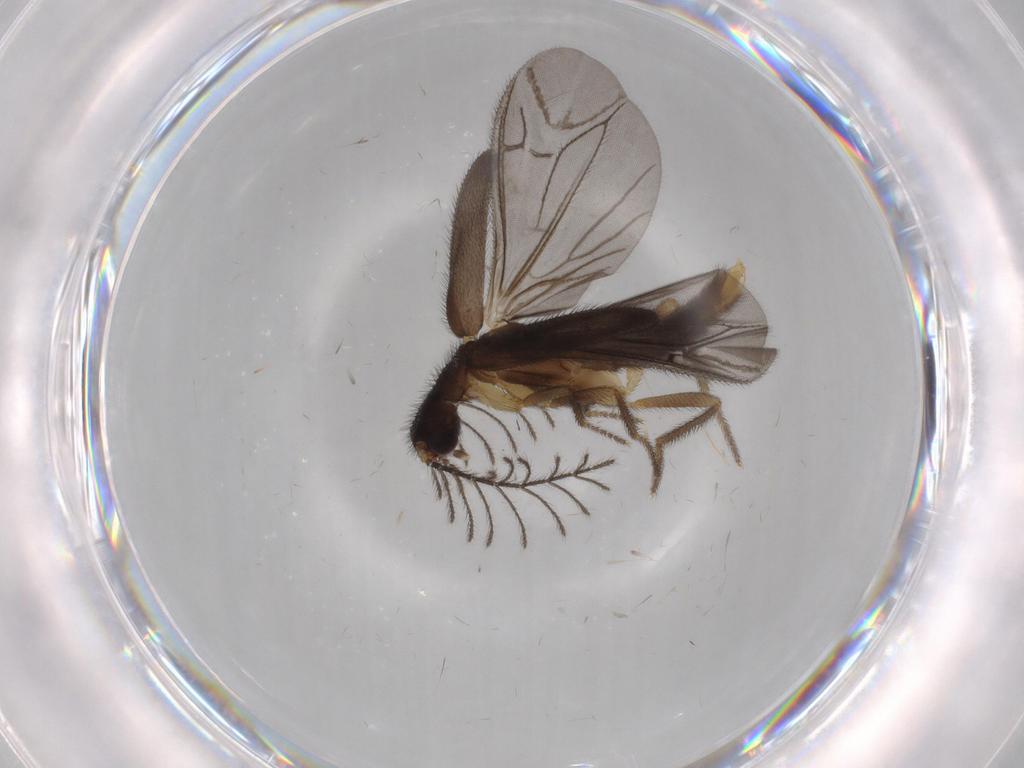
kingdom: Animalia
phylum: Arthropoda
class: Insecta
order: Coleoptera
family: Phengodidae
